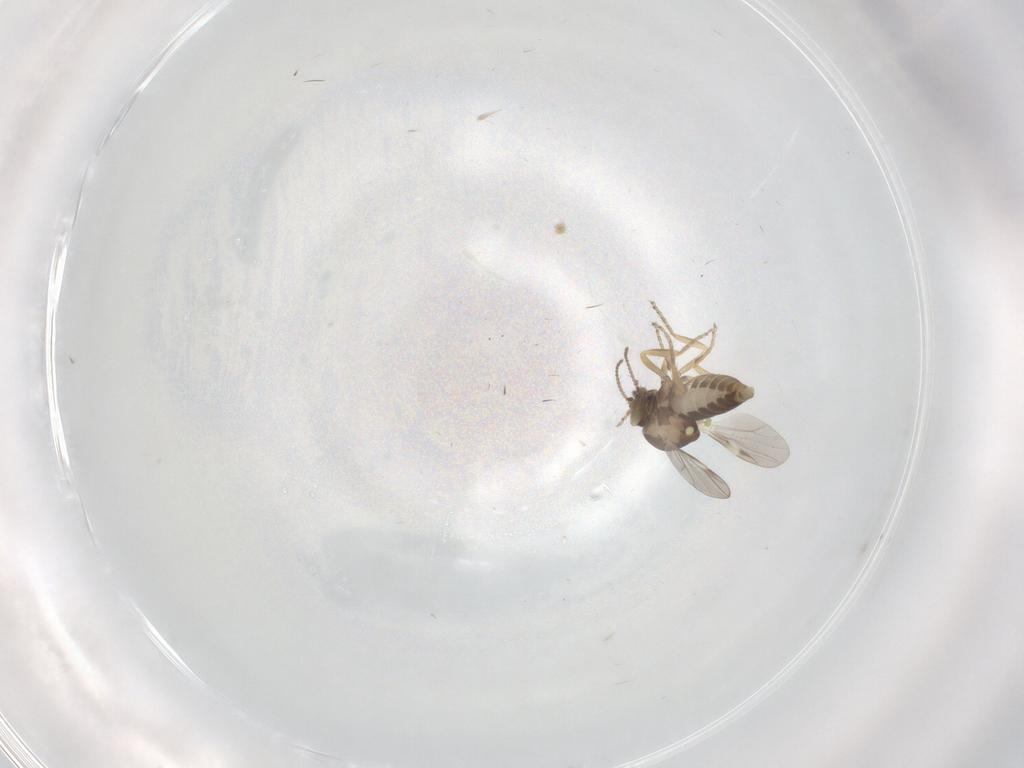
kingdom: Animalia
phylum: Arthropoda
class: Insecta
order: Diptera
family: Ceratopogonidae
